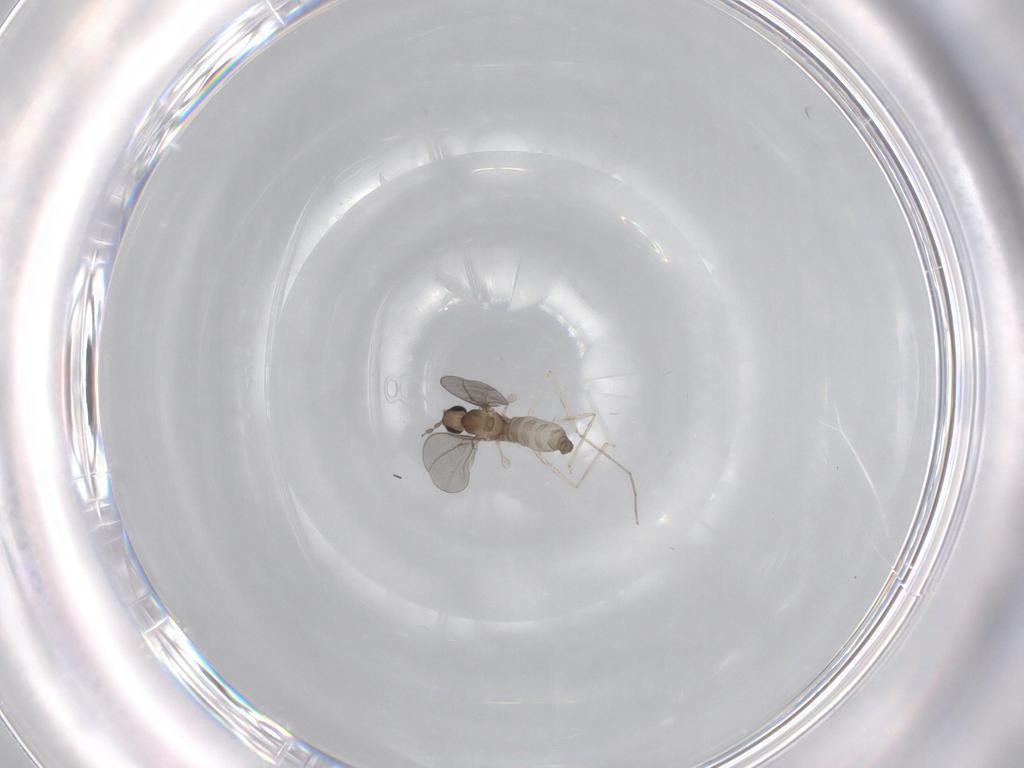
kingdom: Animalia
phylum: Arthropoda
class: Insecta
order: Diptera
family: Cecidomyiidae
